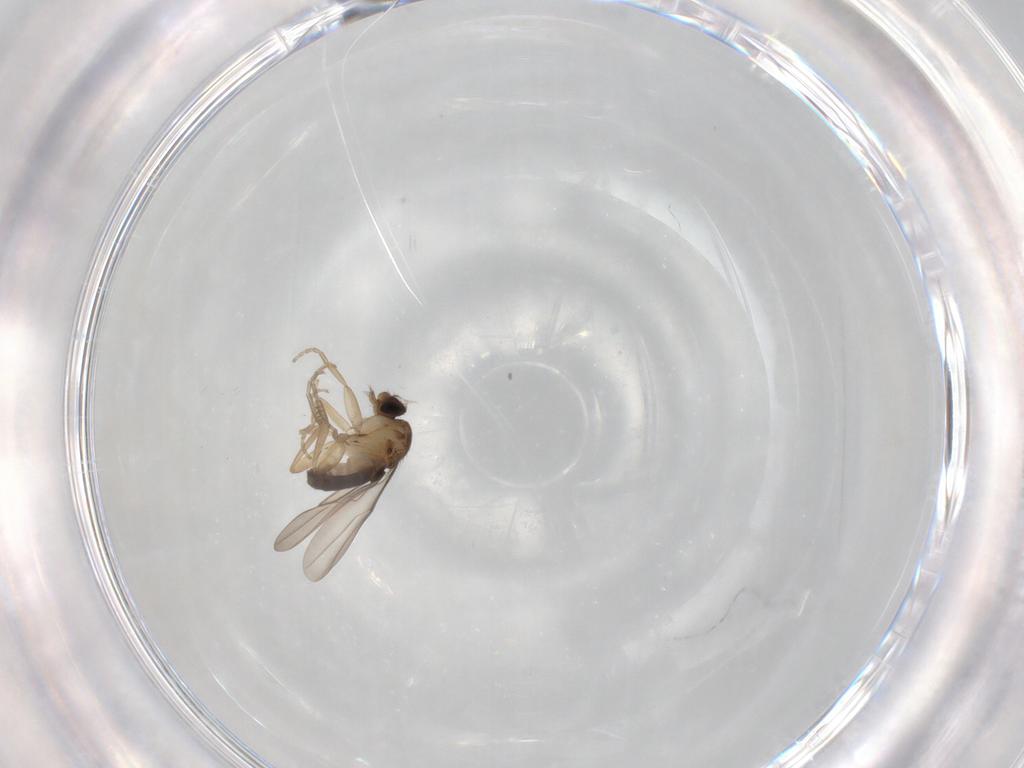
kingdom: Animalia
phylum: Arthropoda
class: Insecta
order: Diptera
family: Phoridae
